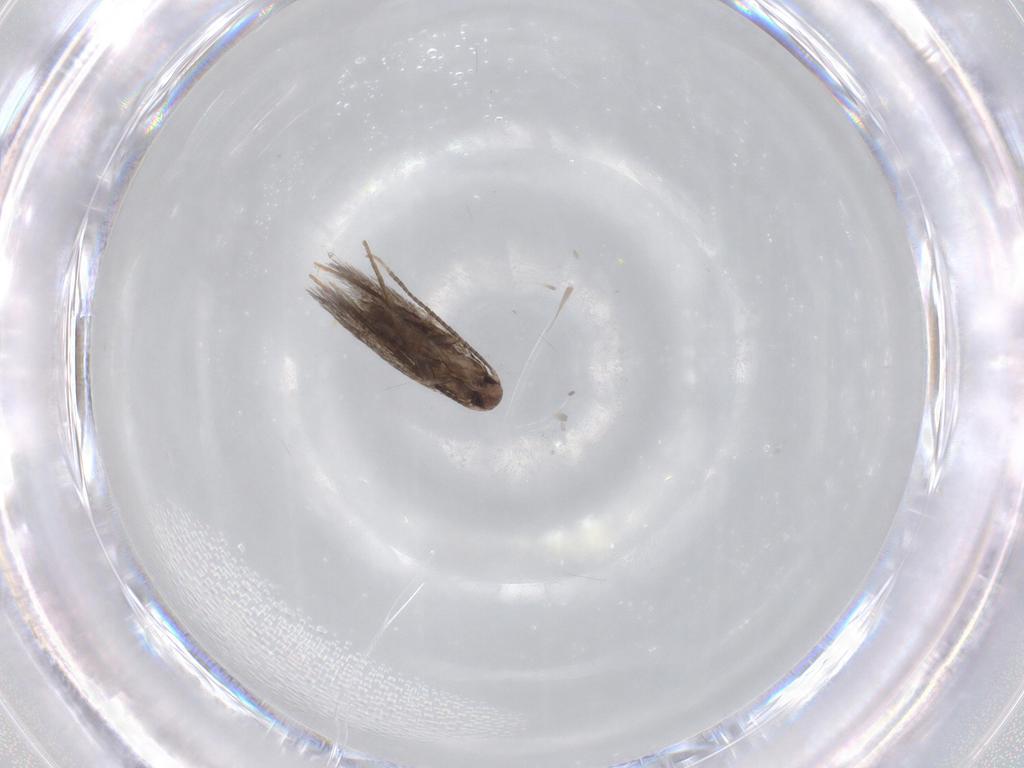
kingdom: Animalia
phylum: Arthropoda
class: Insecta
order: Lepidoptera
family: Gracillariidae
